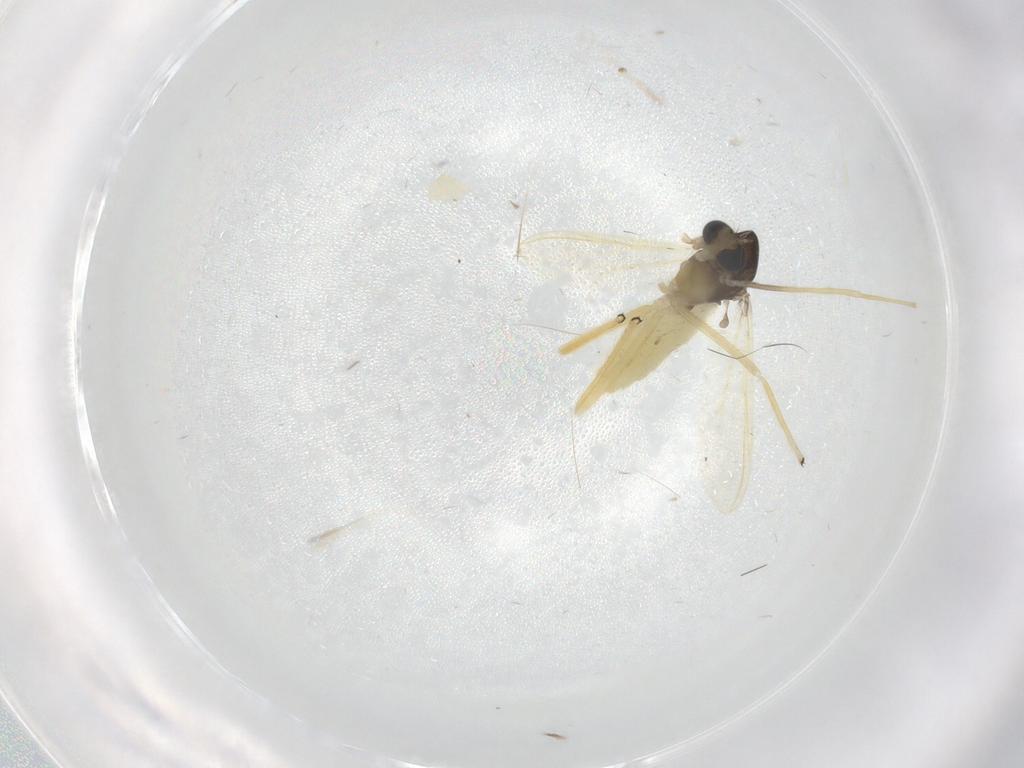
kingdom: Animalia
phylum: Arthropoda
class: Insecta
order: Diptera
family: Chironomidae
